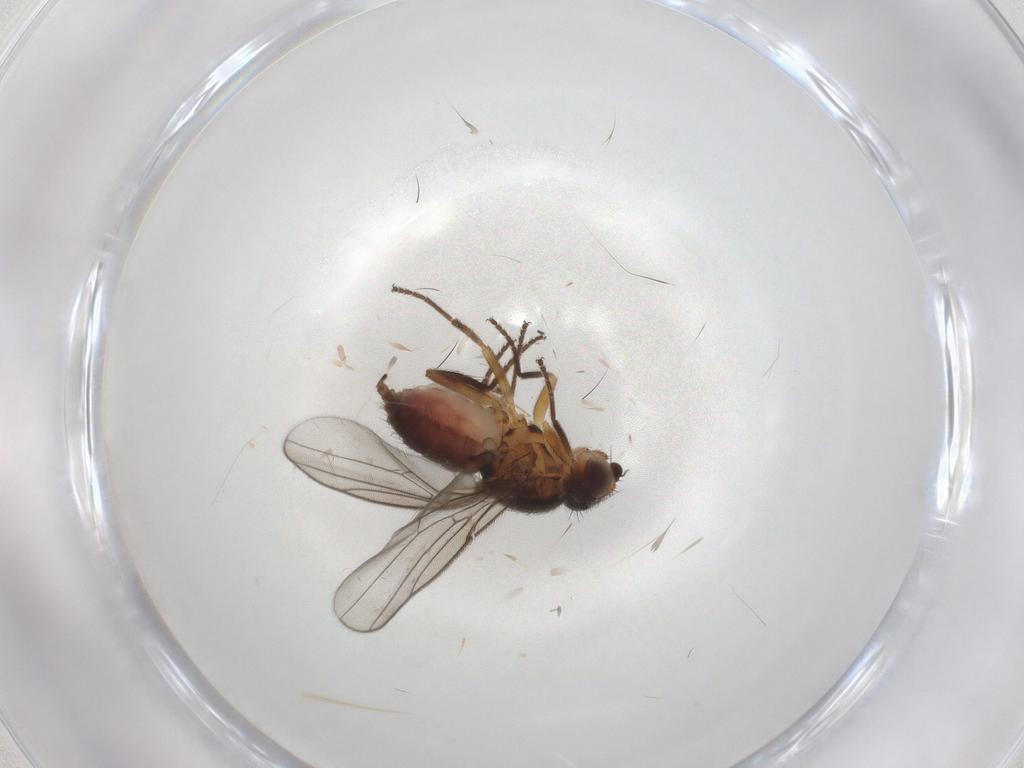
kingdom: Animalia
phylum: Arthropoda
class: Insecta
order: Diptera
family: Chloropidae
